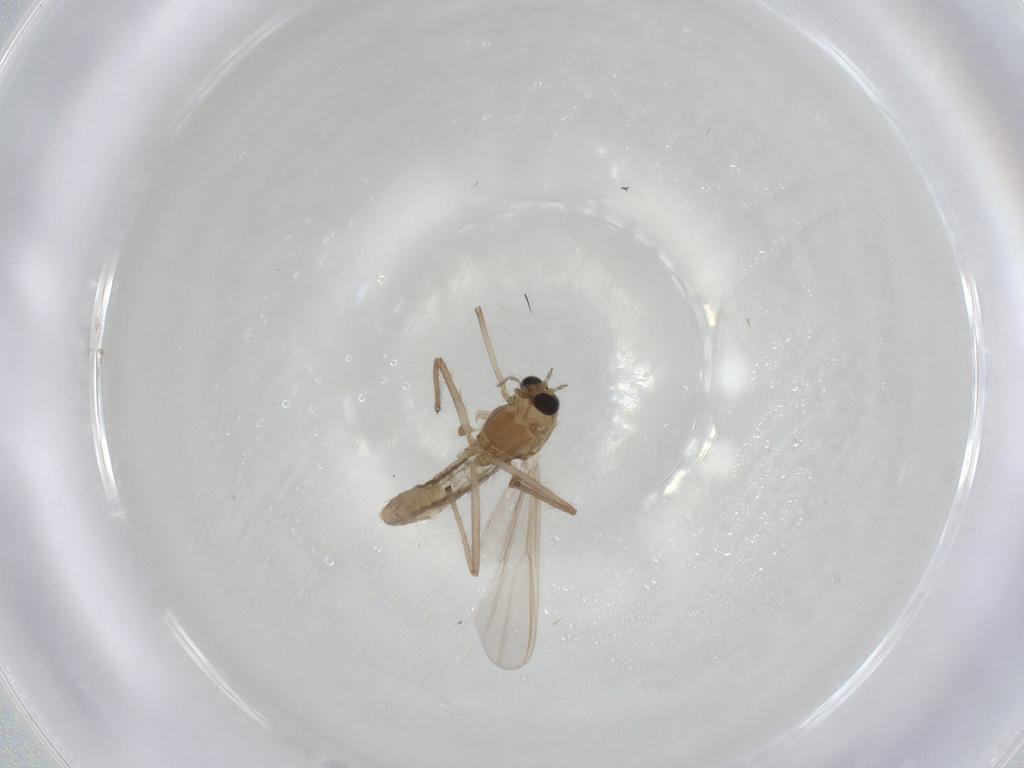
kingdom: Animalia
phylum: Arthropoda
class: Insecta
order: Diptera
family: Chironomidae
